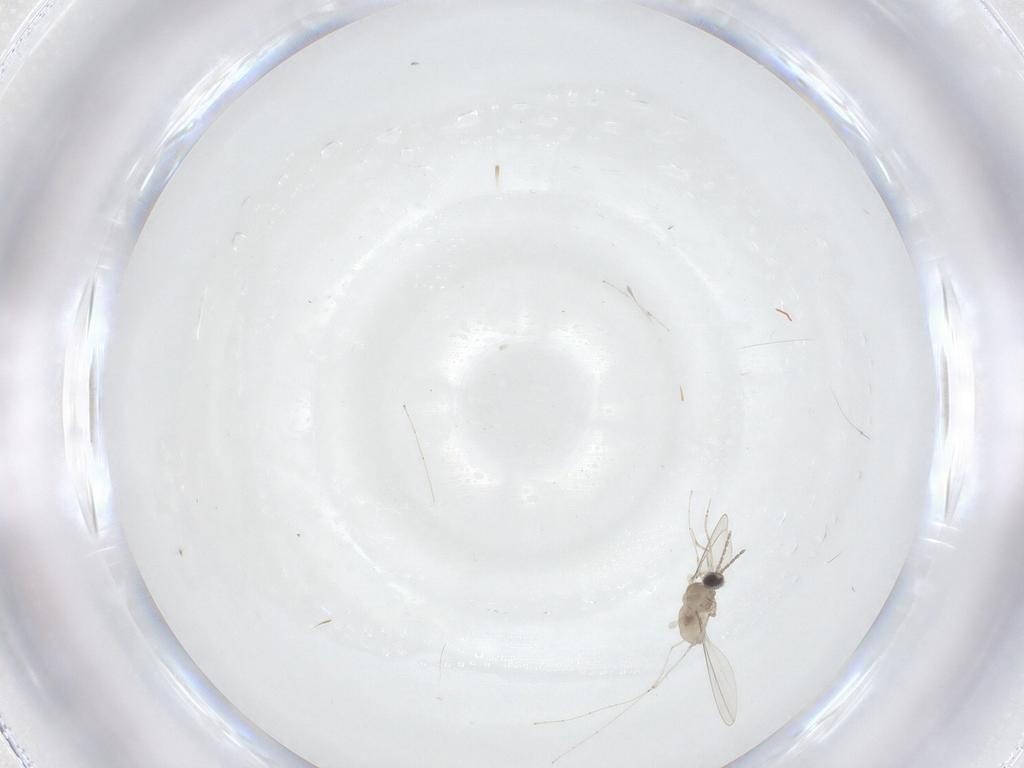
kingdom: Animalia
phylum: Arthropoda
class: Insecta
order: Diptera
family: Cecidomyiidae
